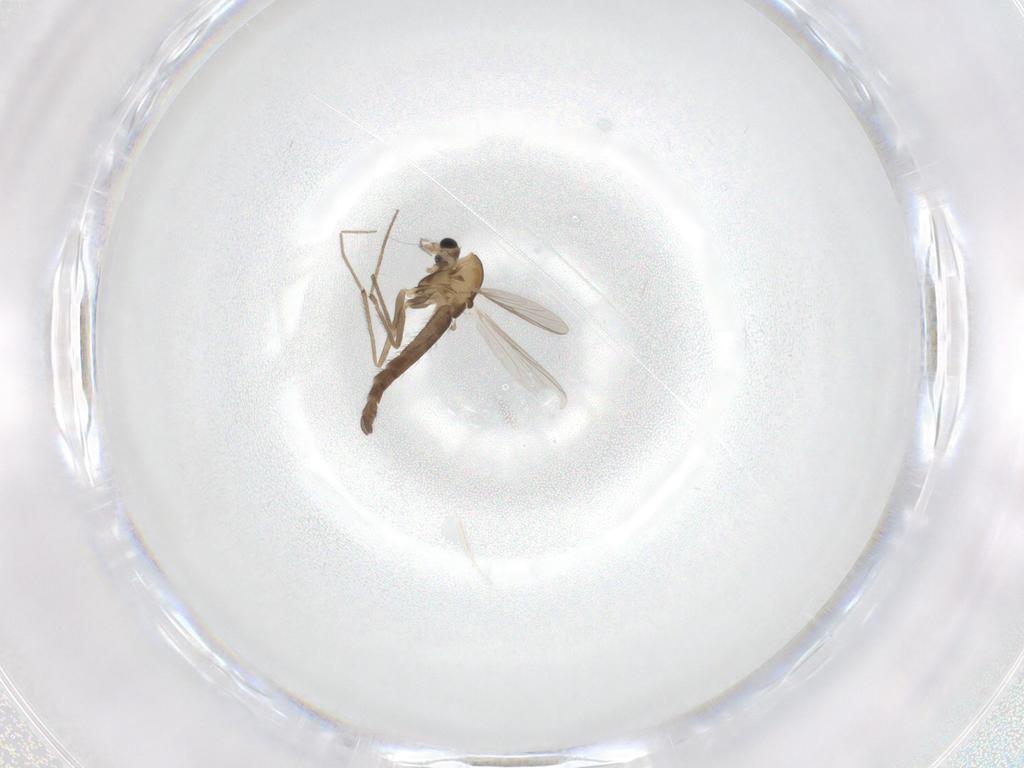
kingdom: Animalia
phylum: Arthropoda
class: Insecta
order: Diptera
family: Chironomidae
